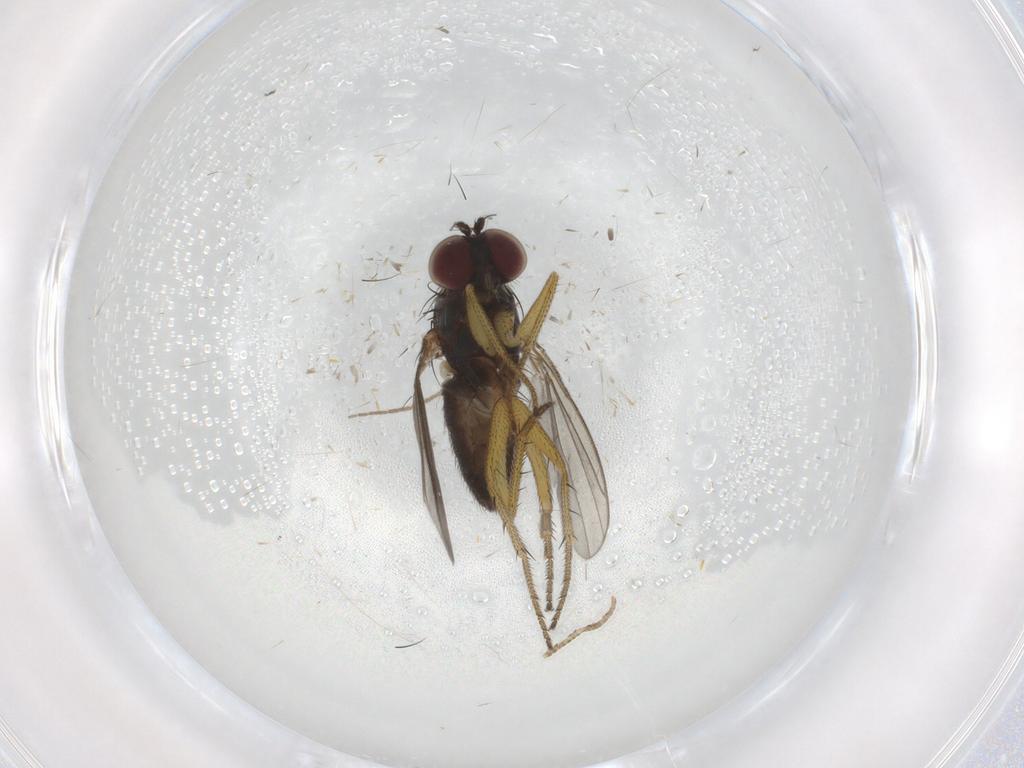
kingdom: Animalia
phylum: Arthropoda
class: Insecta
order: Diptera
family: Ceratopogonidae
